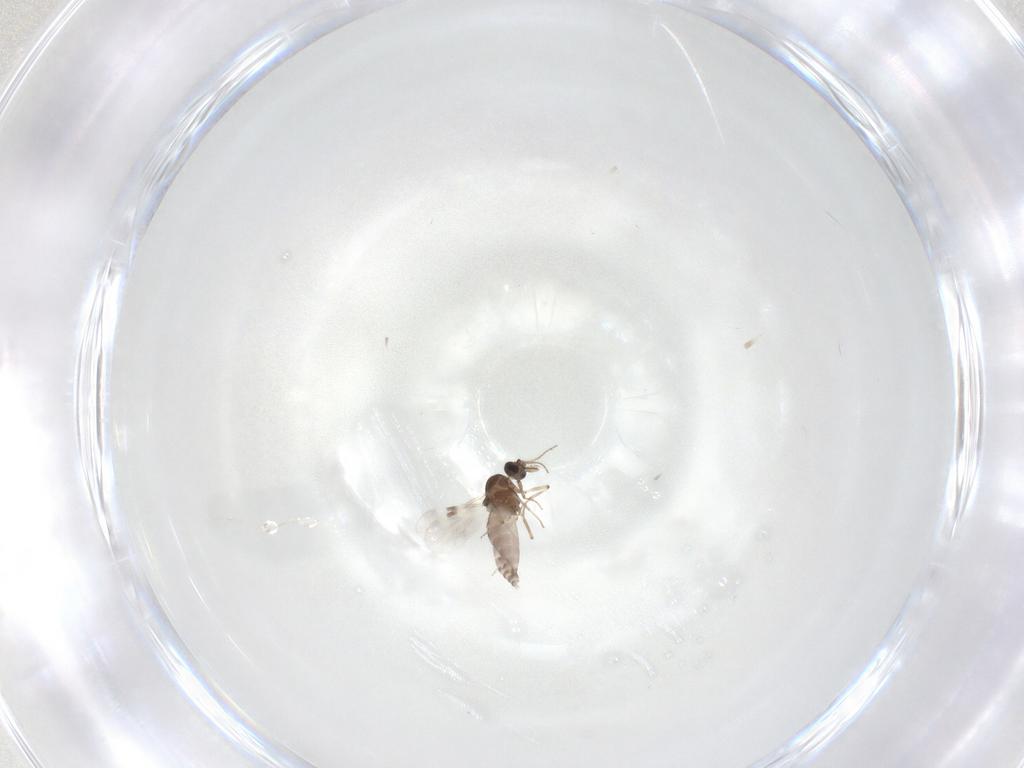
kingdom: Animalia
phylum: Arthropoda
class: Insecta
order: Diptera
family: Ceratopogonidae
